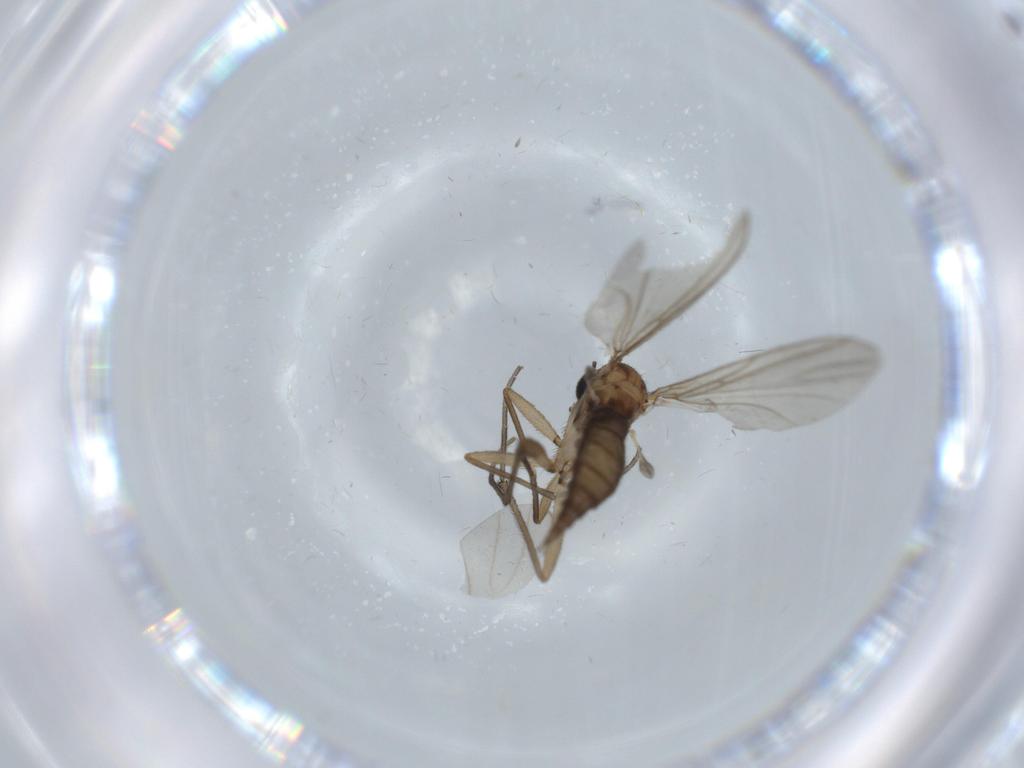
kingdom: Animalia
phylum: Arthropoda
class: Insecta
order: Diptera
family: Sciaridae
